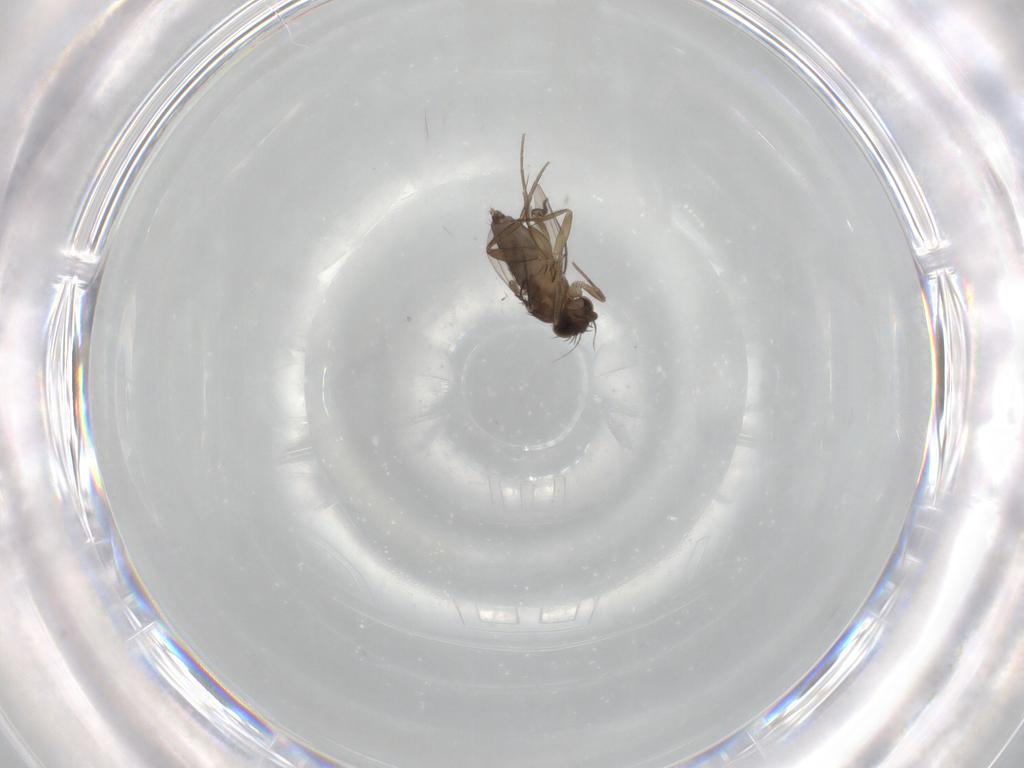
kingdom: Animalia
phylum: Arthropoda
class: Insecta
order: Diptera
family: Phoridae
